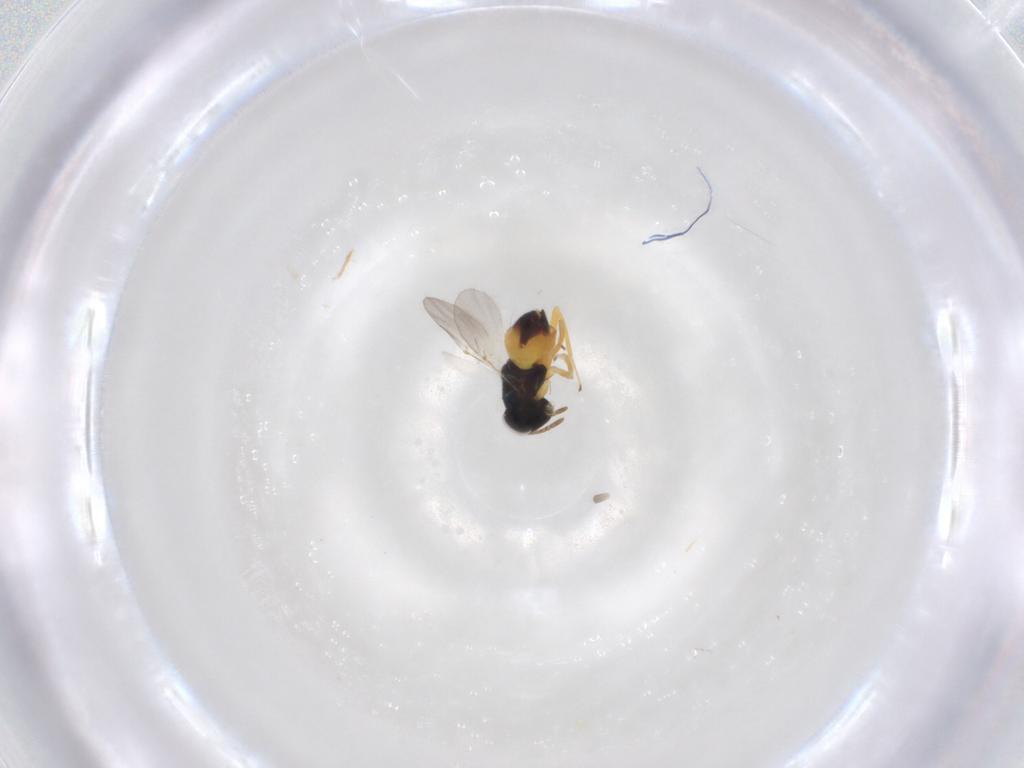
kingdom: Animalia
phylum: Arthropoda
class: Insecta
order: Hymenoptera
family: Encyrtidae
